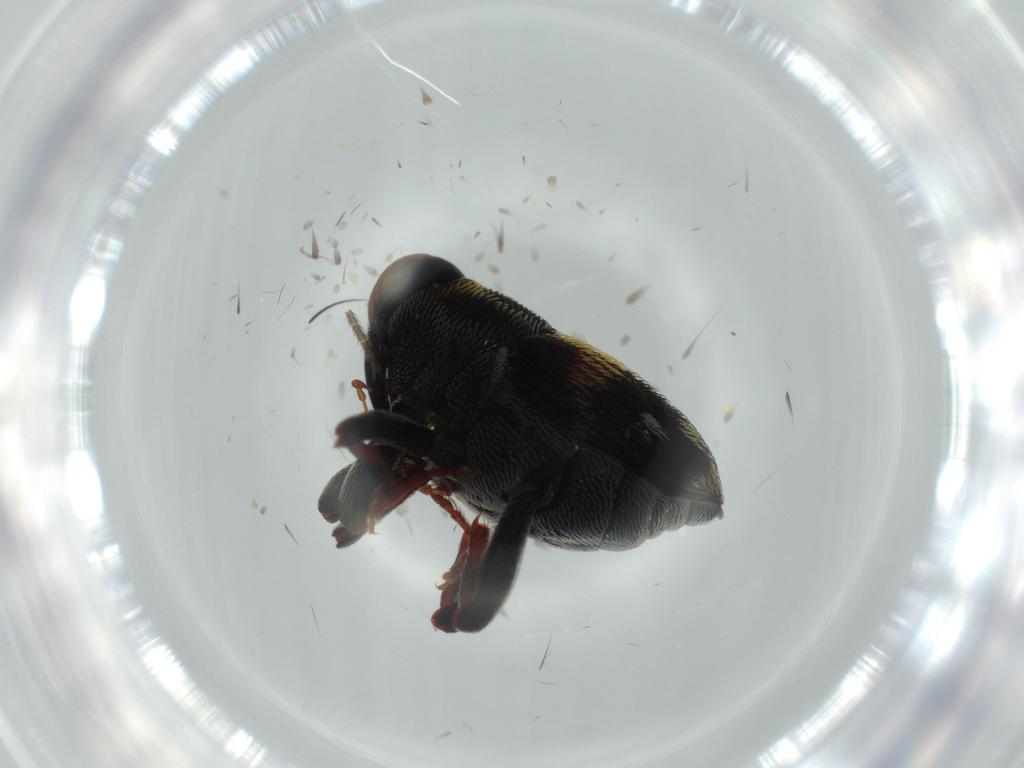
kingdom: Animalia
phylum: Arthropoda
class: Insecta
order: Coleoptera
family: Curculionidae
